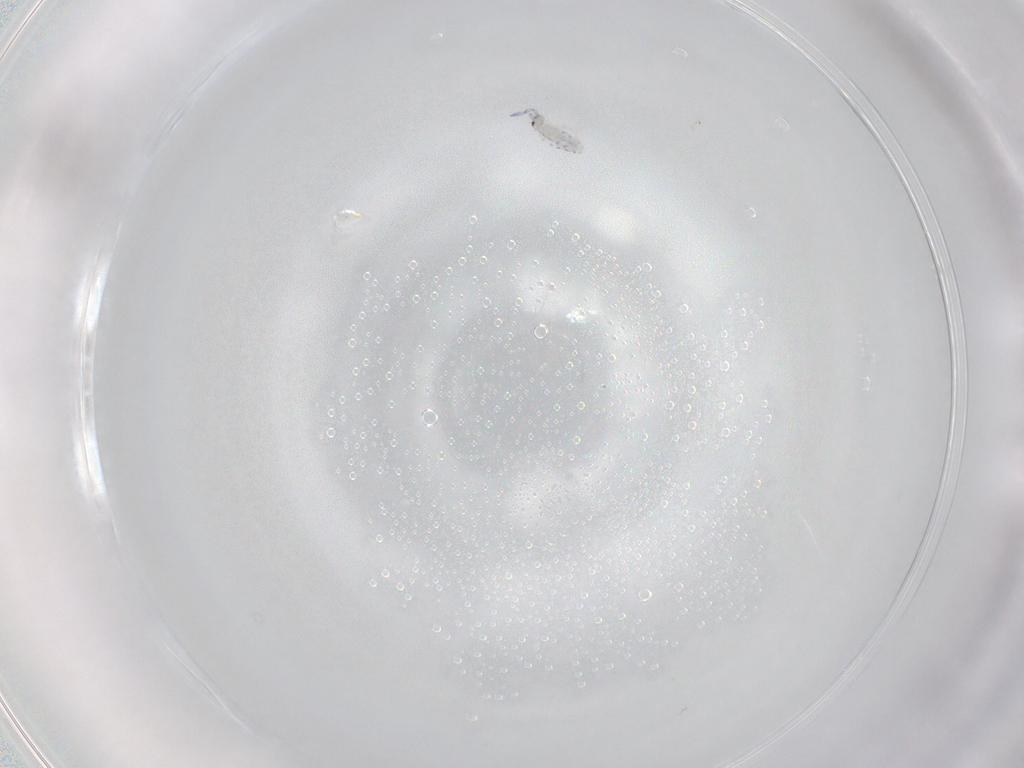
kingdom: Animalia
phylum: Arthropoda
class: Collembola
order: Entomobryomorpha
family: Entomobryidae
